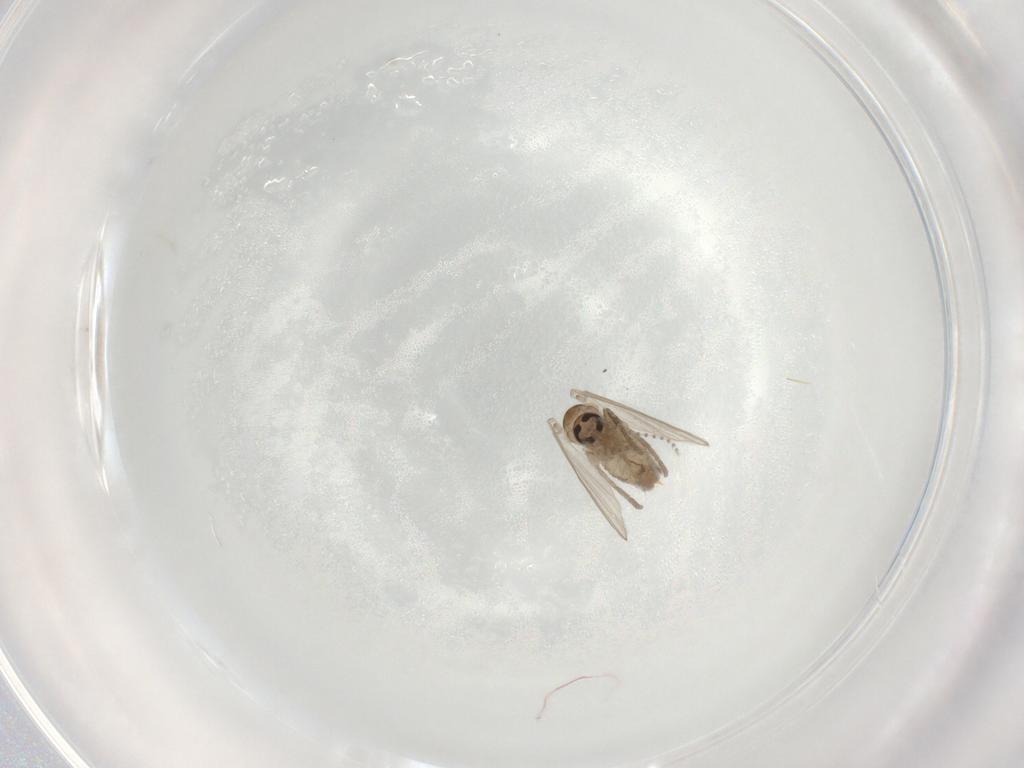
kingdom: Animalia
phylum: Arthropoda
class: Insecta
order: Diptera
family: Psychodidae
